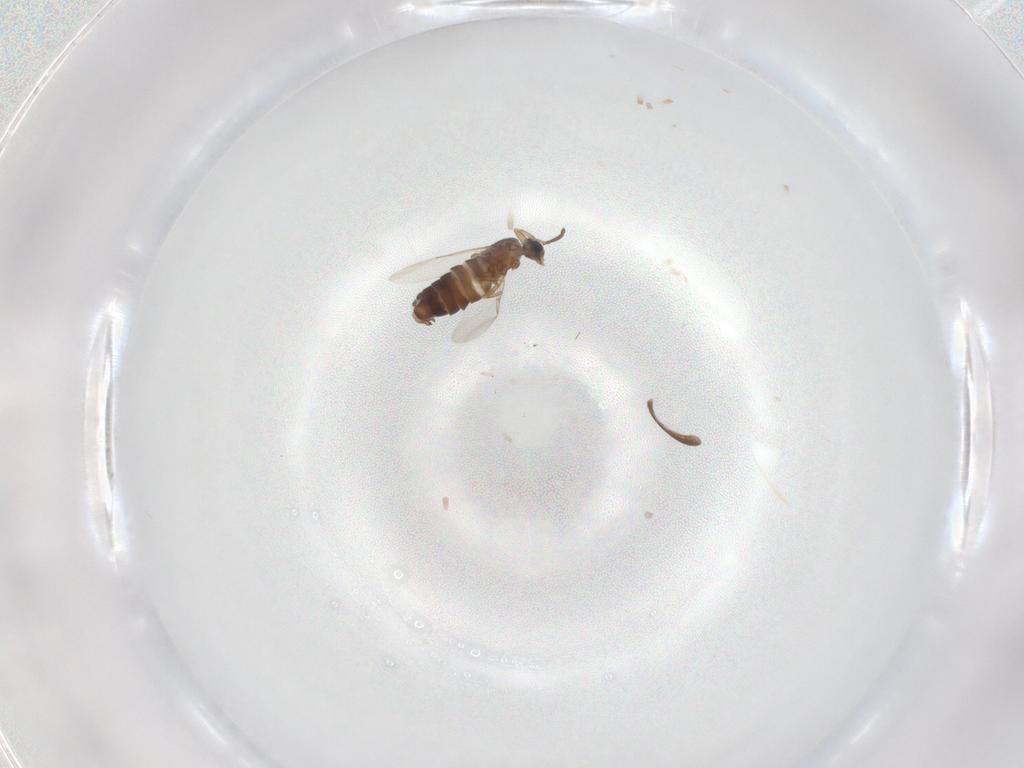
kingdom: Animalia
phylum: Arthropoda
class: Insecta
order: Diptera
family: Scatopsidae
